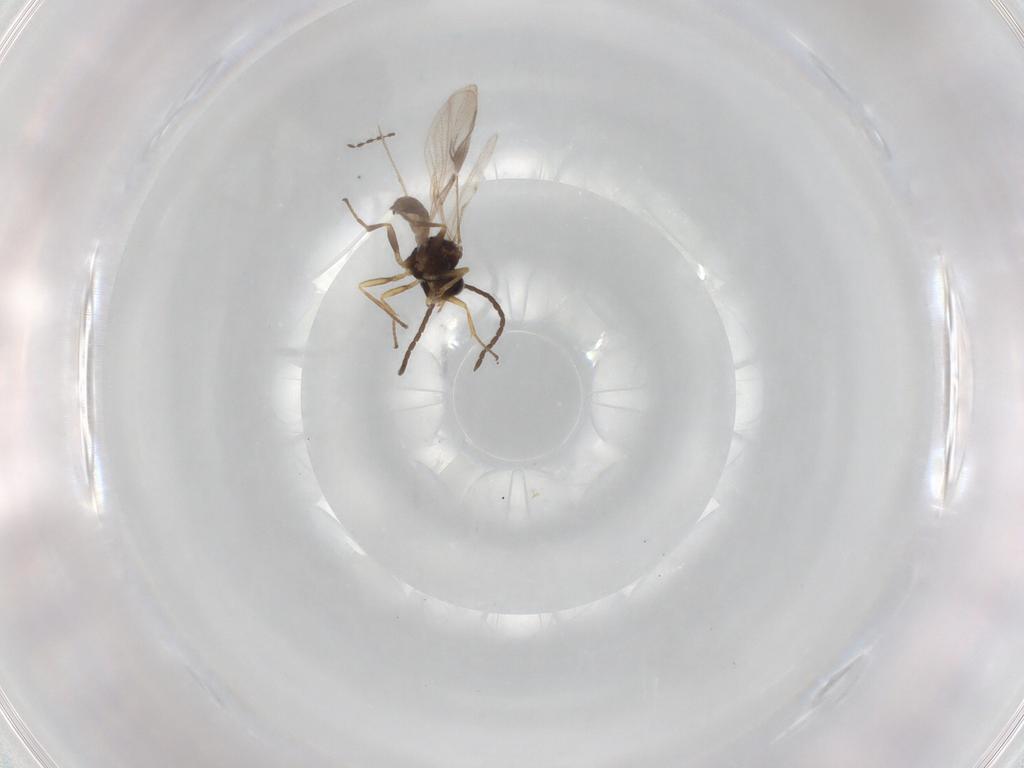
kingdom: Animalia
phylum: Arthropoda
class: Insecta
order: Hymenoptera
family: Braconidae
